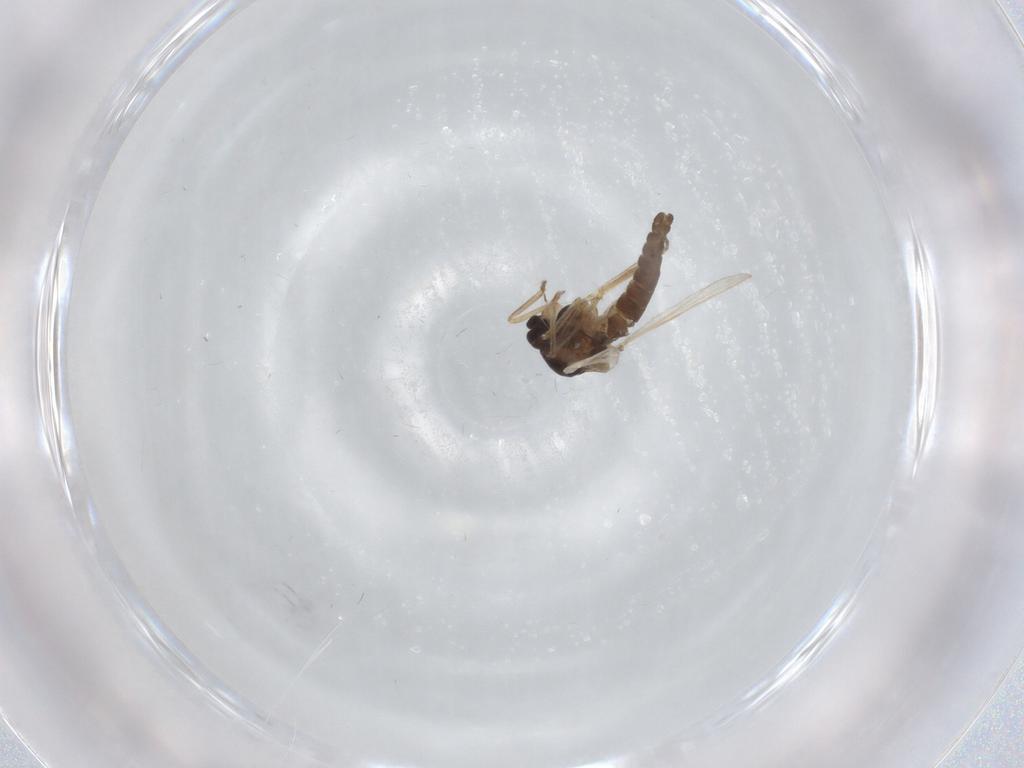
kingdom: Animalia
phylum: Arthropoda
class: Insecta
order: Diptera
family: Ceratopogonidae
